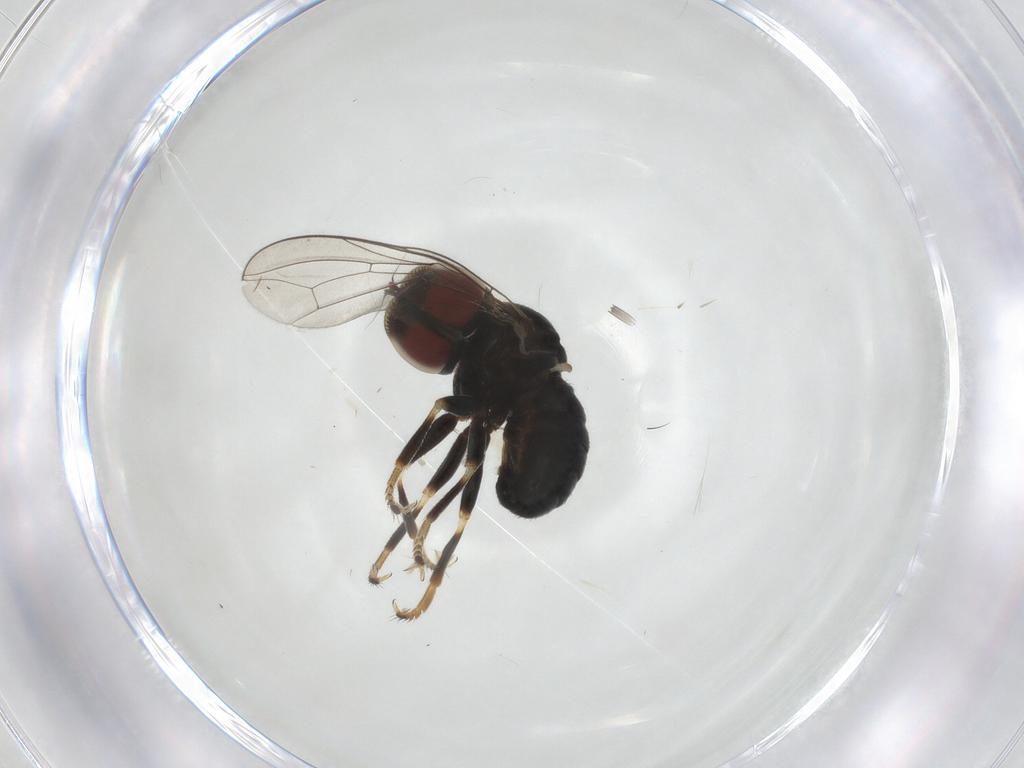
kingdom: Animalia
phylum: Arthropoda
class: Insecta
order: Diptera
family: Pipunculidae
